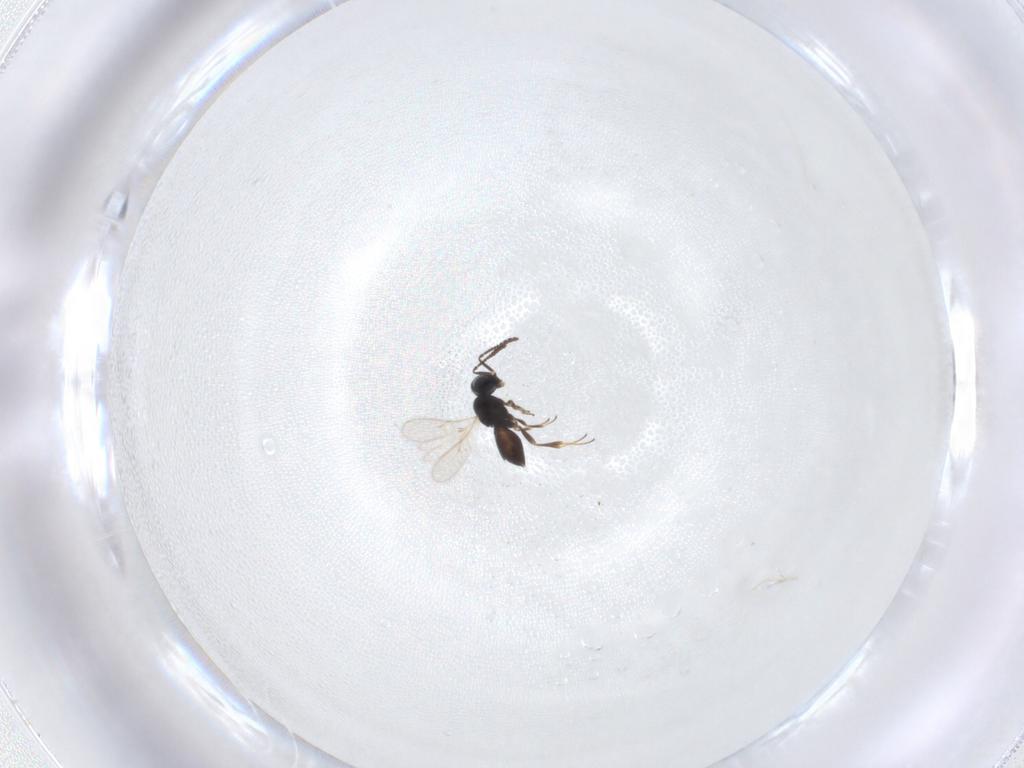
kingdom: Animalia
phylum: Arthropoda
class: Insecta
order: Hymenoptera
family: Scelionidae
